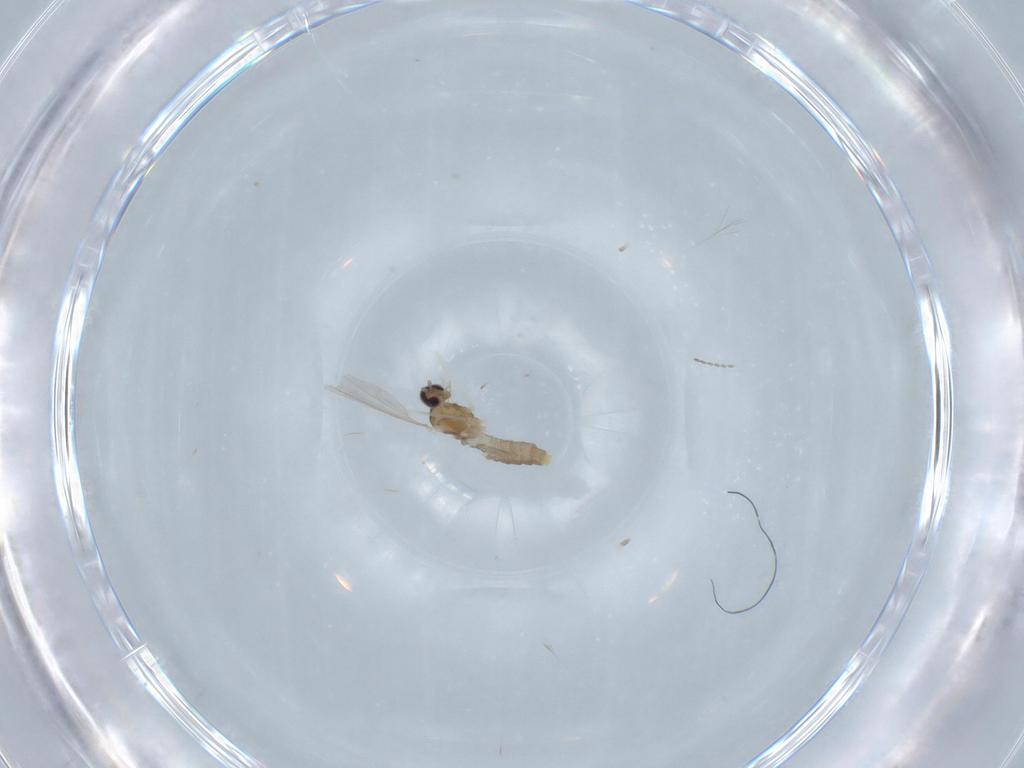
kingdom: Animalia
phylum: Arthropoda
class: Insecta
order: Diptera
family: Cecidomyiidae
